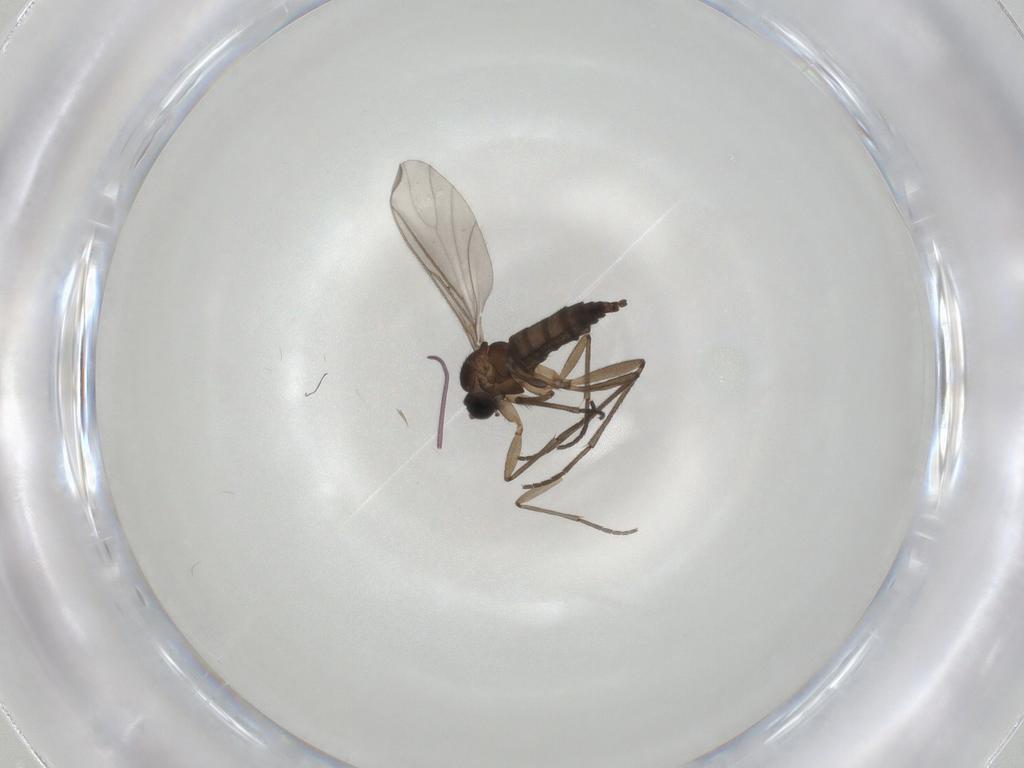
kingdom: Animalia
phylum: Arthropoda
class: Insecta
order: Diptera
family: Sciaridae
